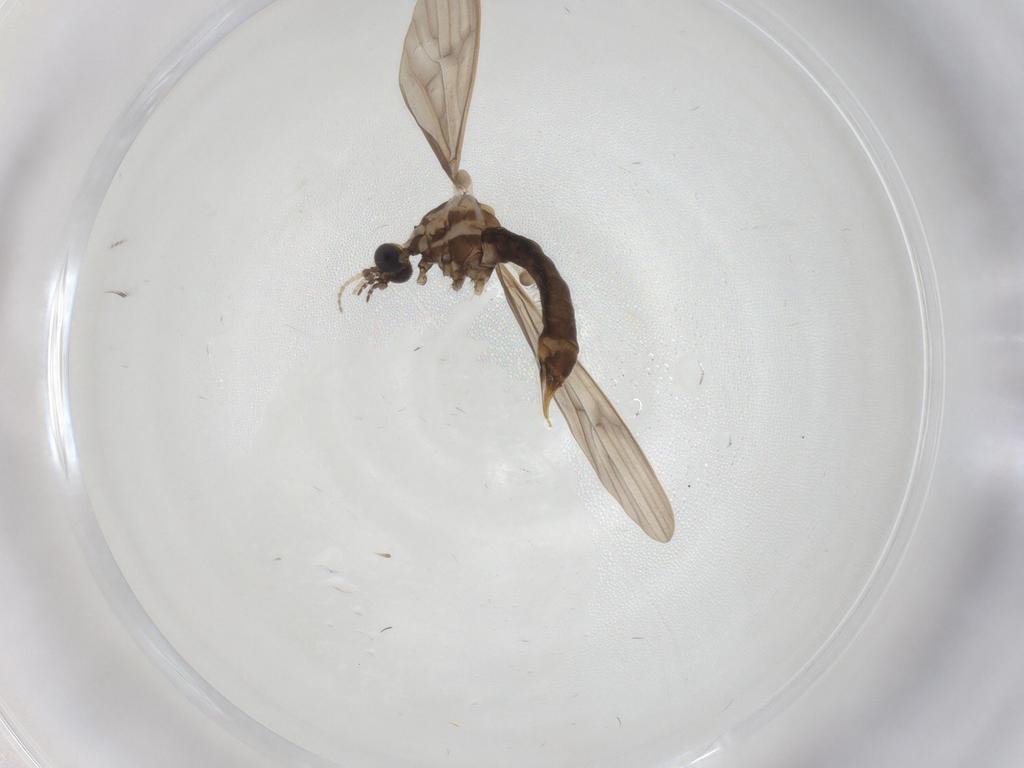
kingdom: Animalia
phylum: Arthropoda
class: Insecta
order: Diptera
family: Limoniidae
